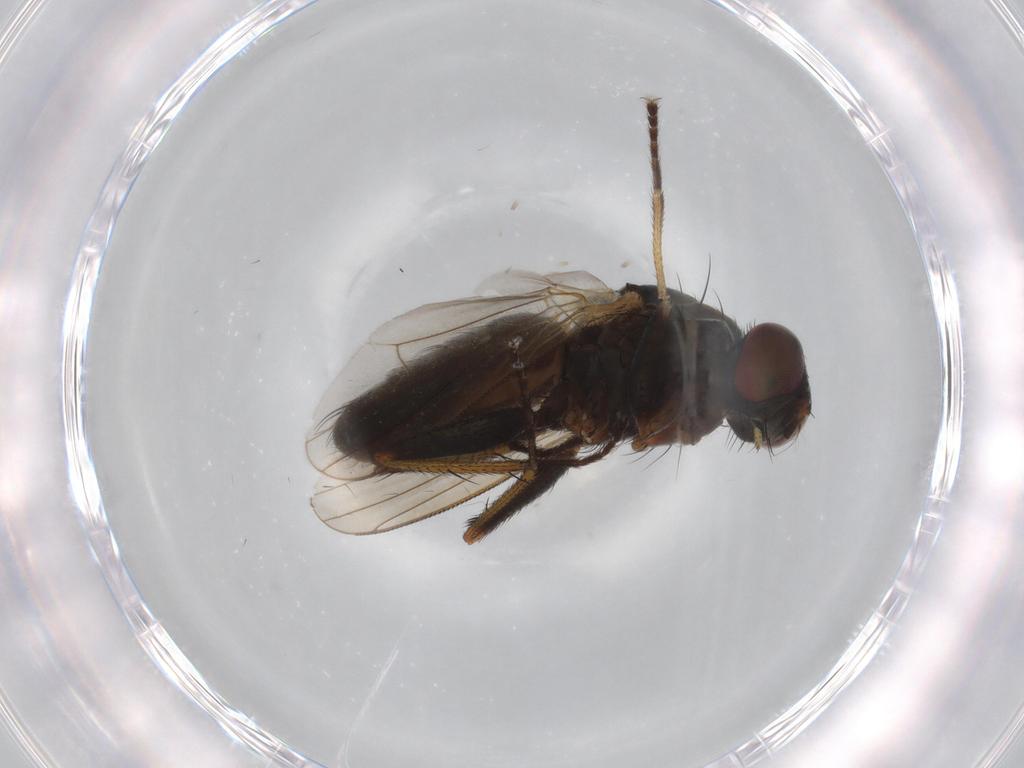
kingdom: Animalia
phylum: Arthropoda
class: Insecta
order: Diptera
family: Muscidae
